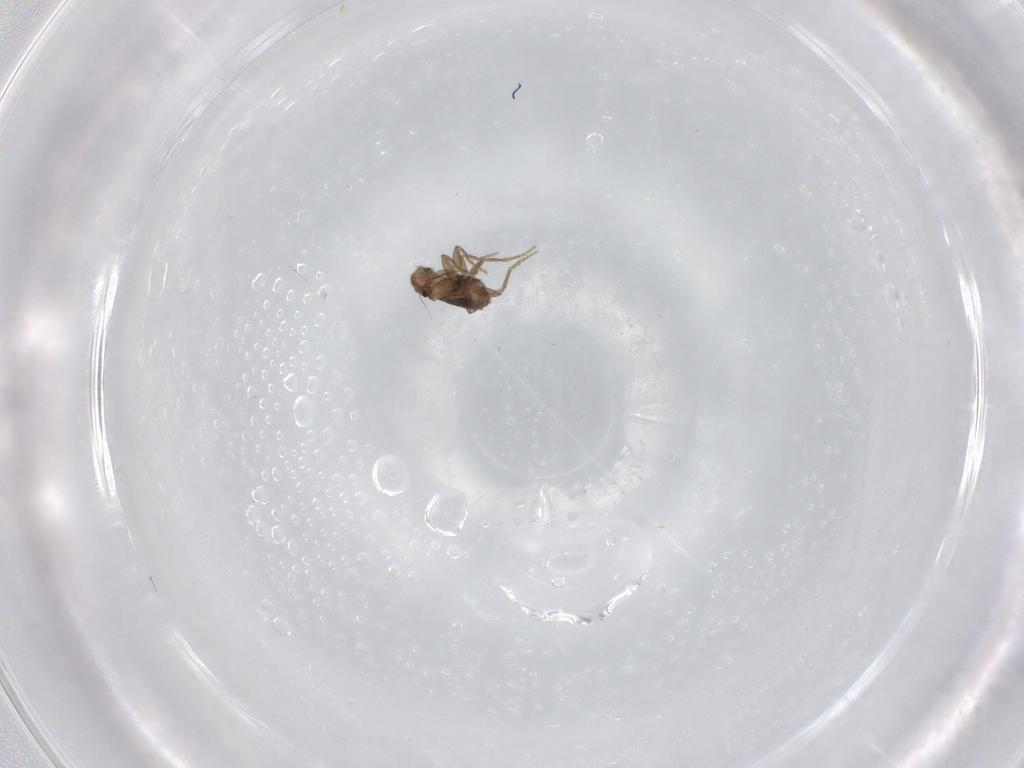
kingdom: Animalia
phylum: Arthropoda
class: Insecta
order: Diptera
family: Phoridae
